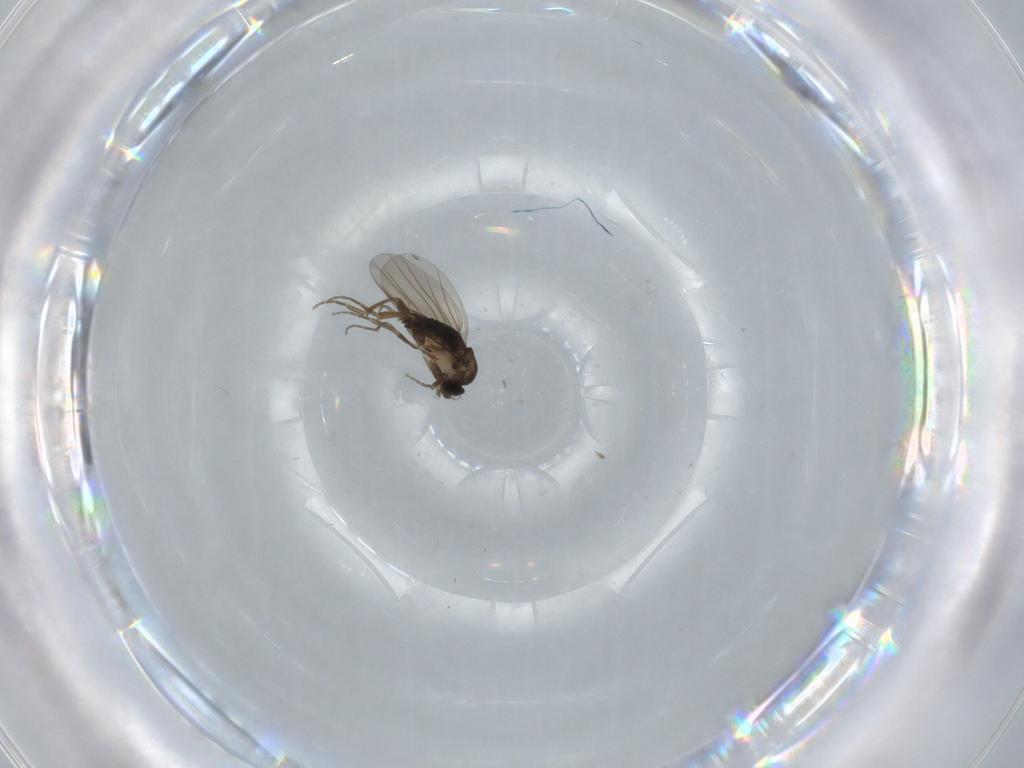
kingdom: Animalia
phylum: Arthropoda
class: Insecta
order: Diptera
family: Phoridae
